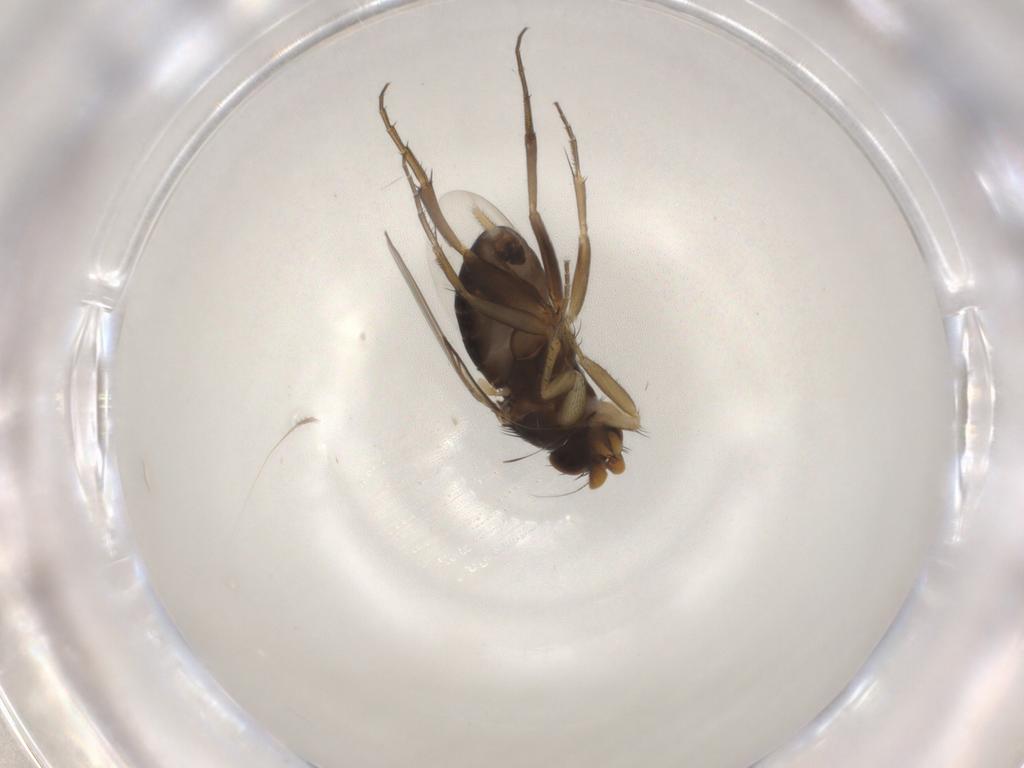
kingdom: Animalia
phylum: Arthropoda
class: Insecta
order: Diptera
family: Phoridae
